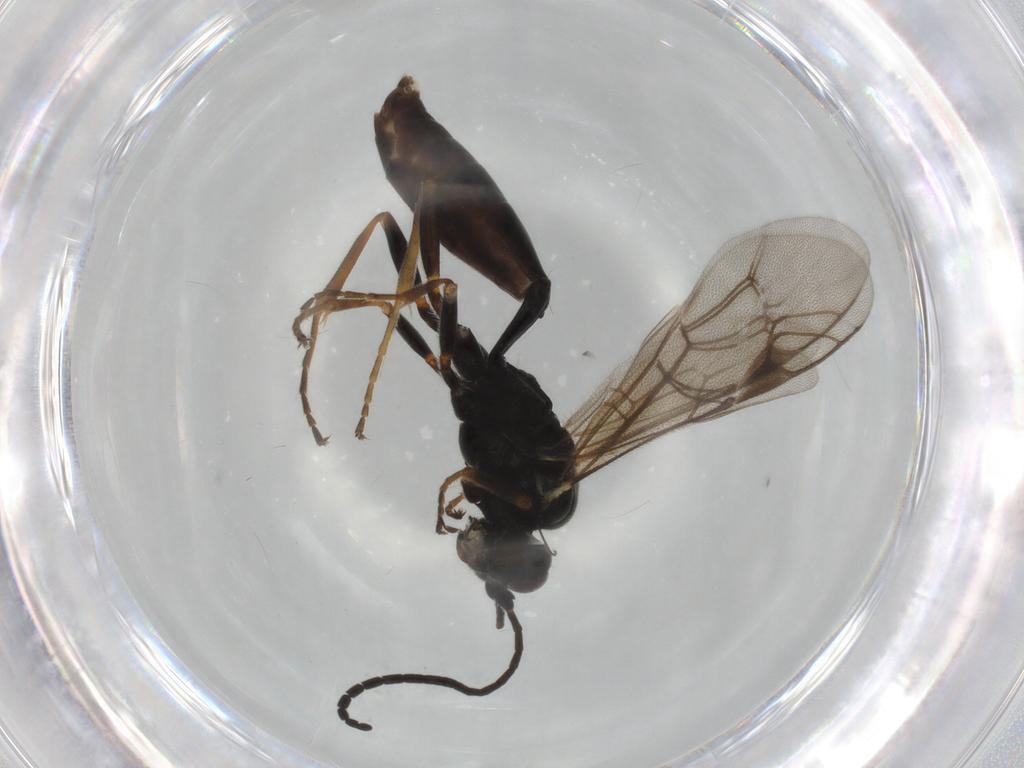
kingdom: Animalia
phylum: Arthropoda
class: Insecta
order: Hymenoptera
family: Ichneumonidae
